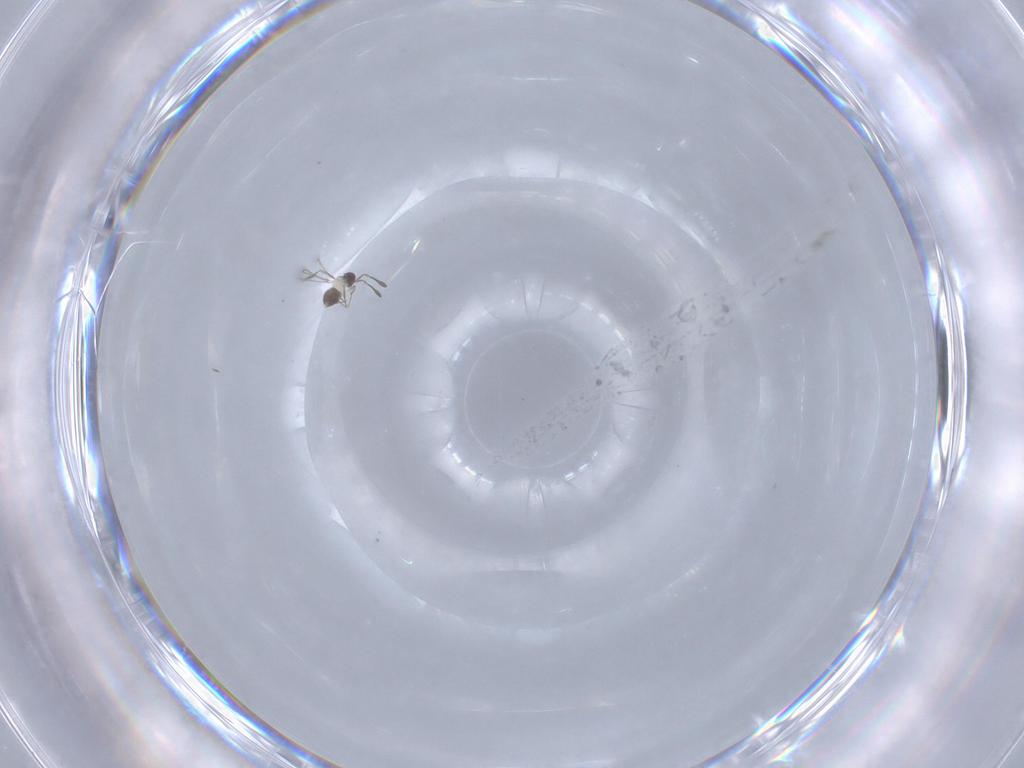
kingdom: Animalia
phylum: Arthropoda
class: Insecta
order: Hymenoptera
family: Mymaridae
